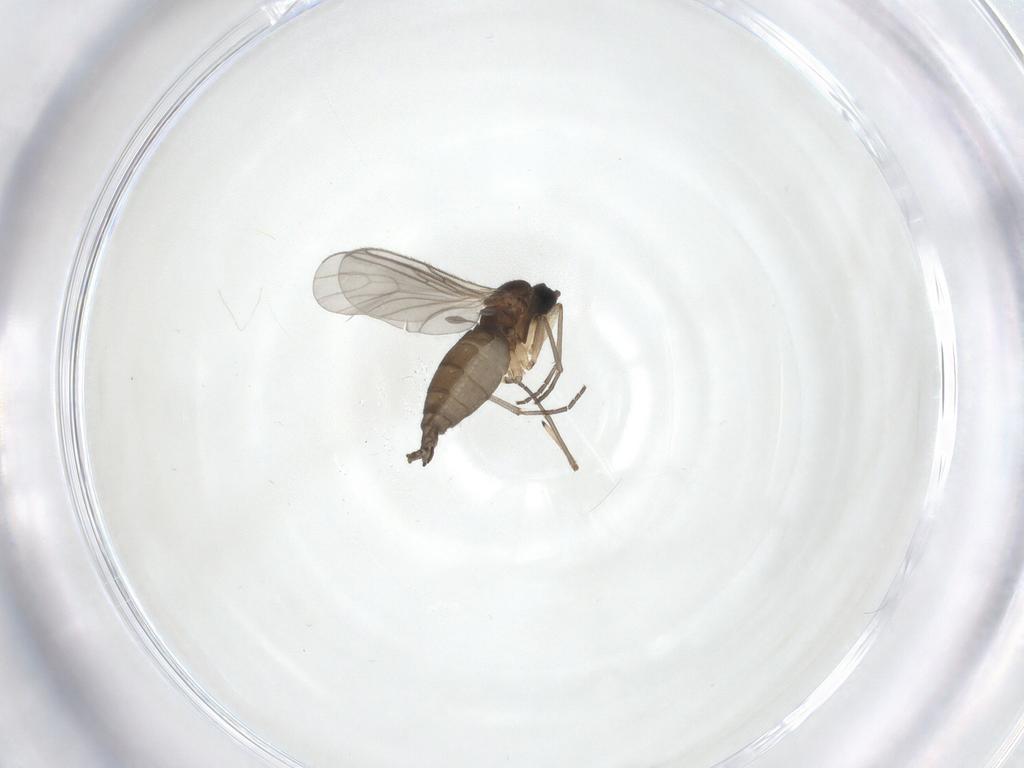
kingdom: Animalia
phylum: Arthropoda
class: Insecta
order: Diptera
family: Sciaridae
